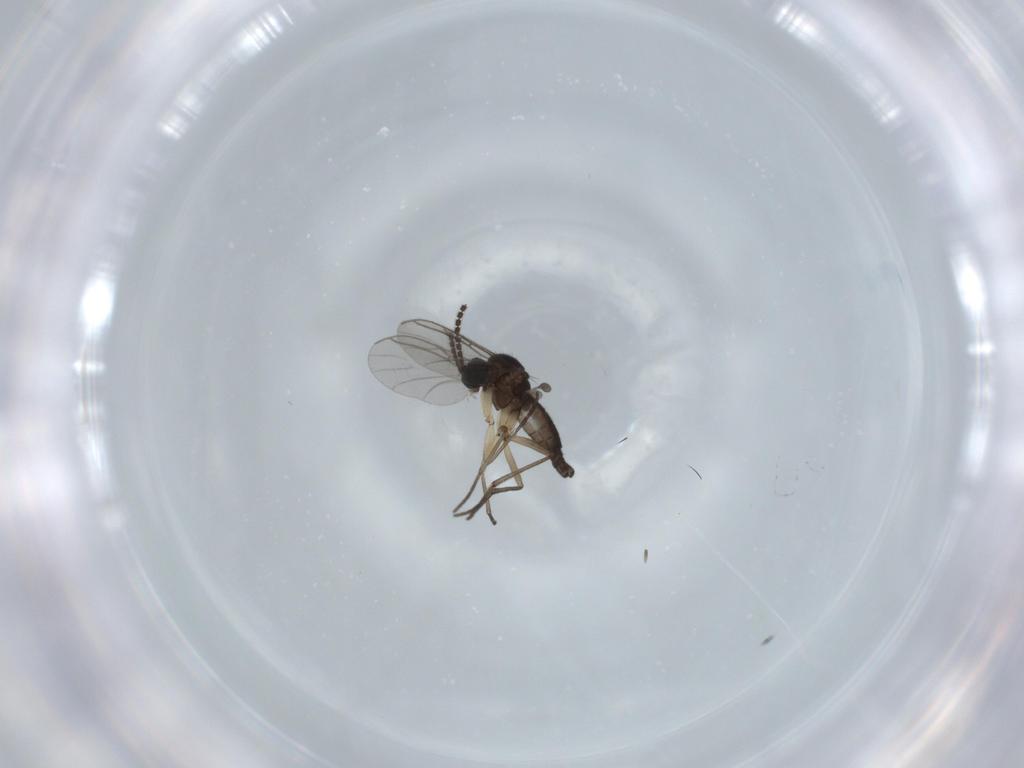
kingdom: Animalia
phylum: Arthropoda
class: Insecta
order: Diptera
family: Sciaridae
